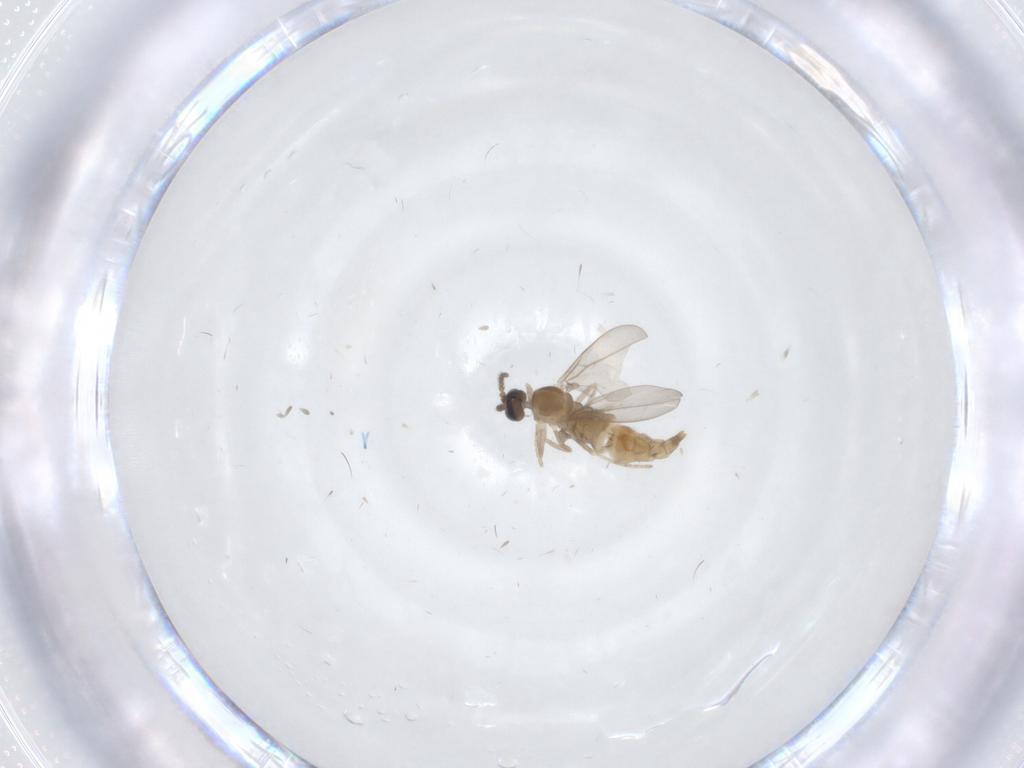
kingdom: Animalia
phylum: Arthropoda
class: Insecta
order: Diptera
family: Cecidomyiidae
